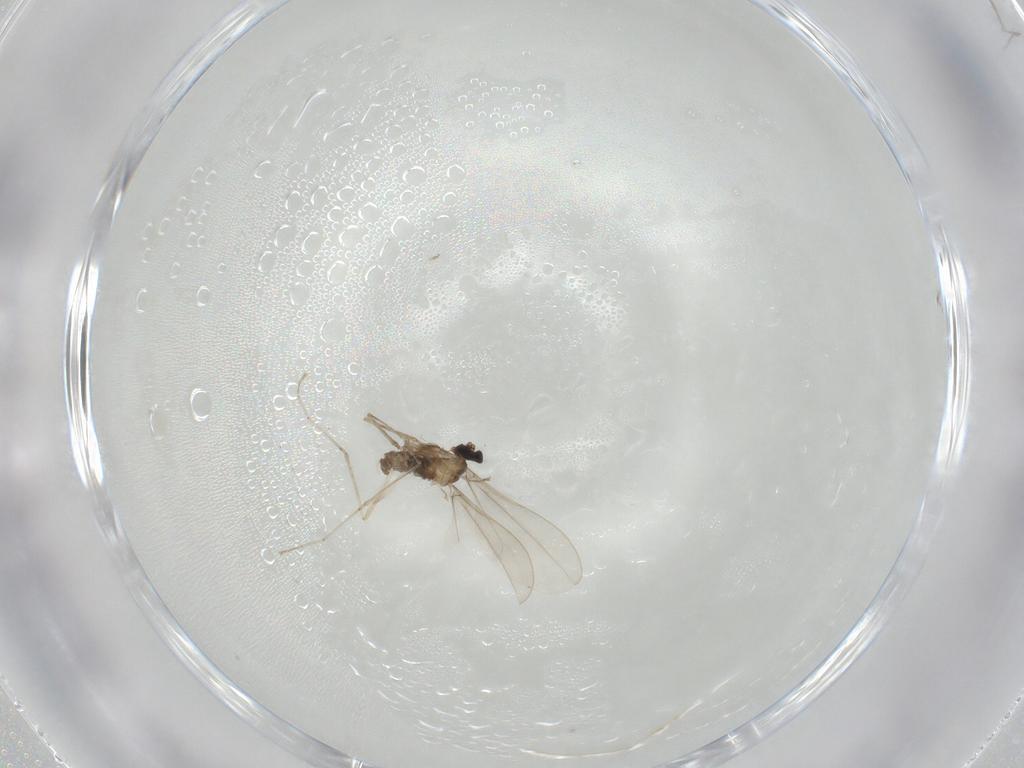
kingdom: Animalia
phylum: Arthropoda
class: Insecta
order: Diptera
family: Cecidomyiidae
